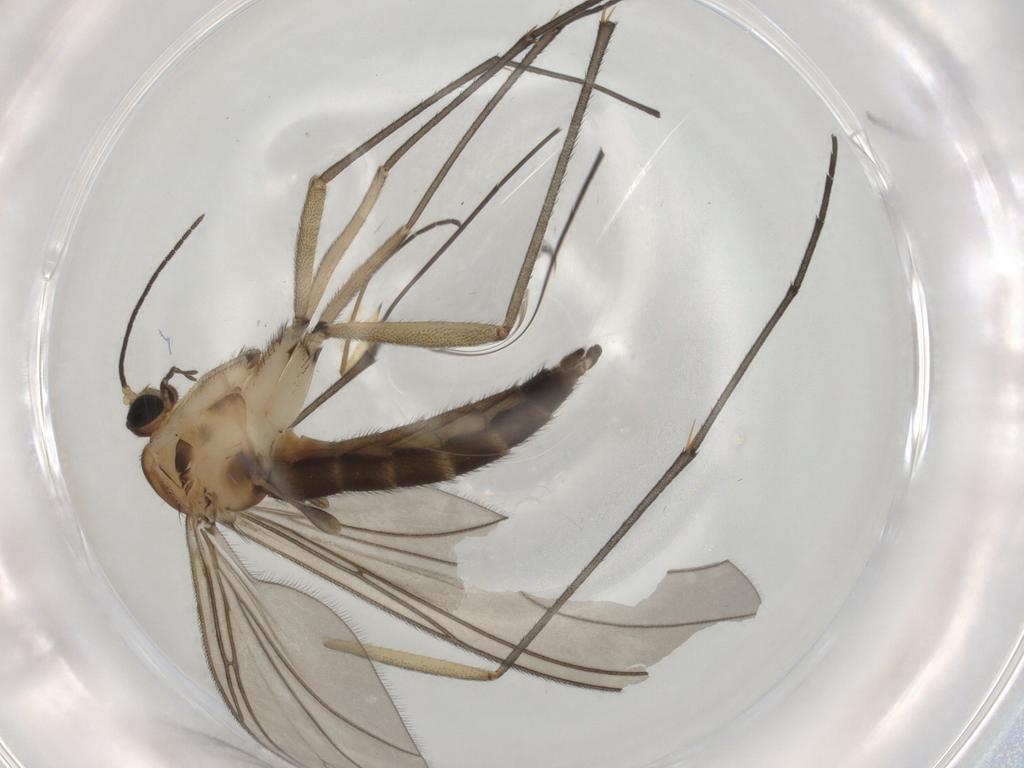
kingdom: Animalia
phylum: Arthropoda
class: Insecta
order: Diptera
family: Sciaridae
